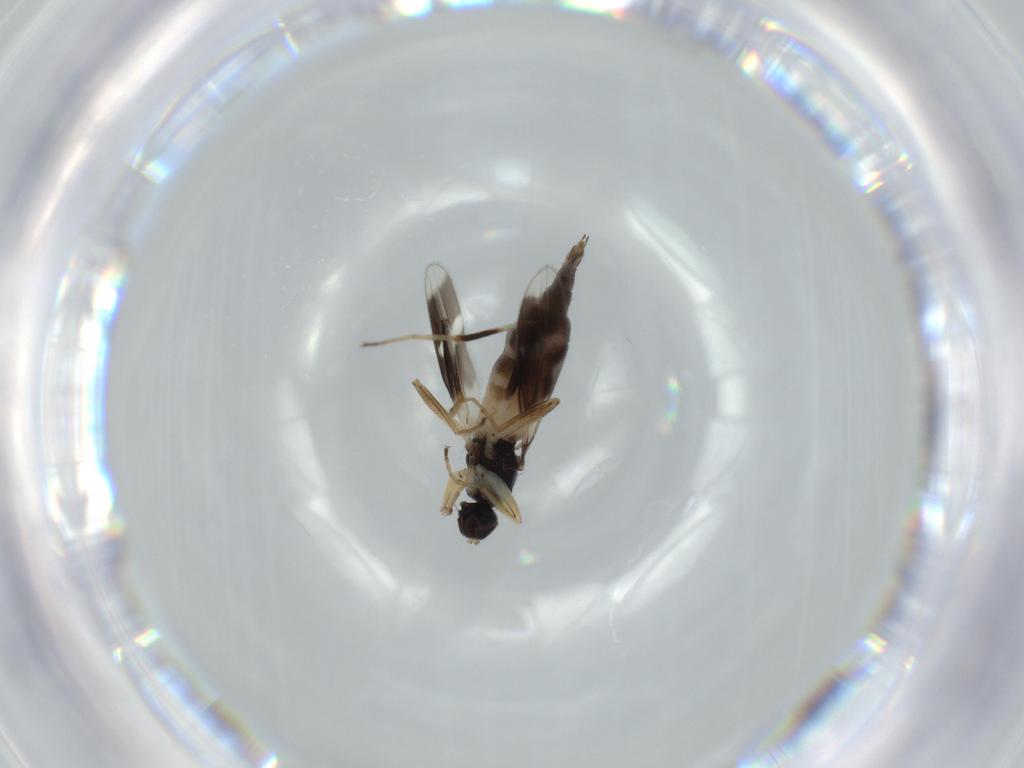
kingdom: Animalia
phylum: Arthropoda
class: Insecta
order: Diptera
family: Hybotidae
